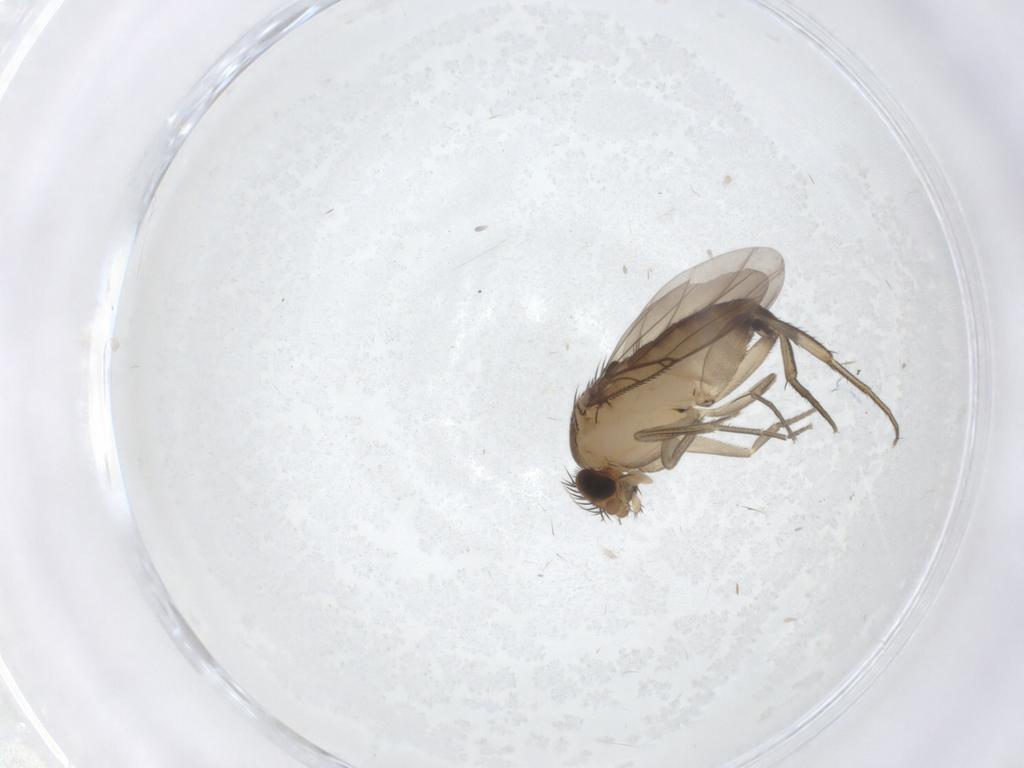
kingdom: Animalia
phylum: Arthropoda
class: Insecta
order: Diptera
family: Phoridae
